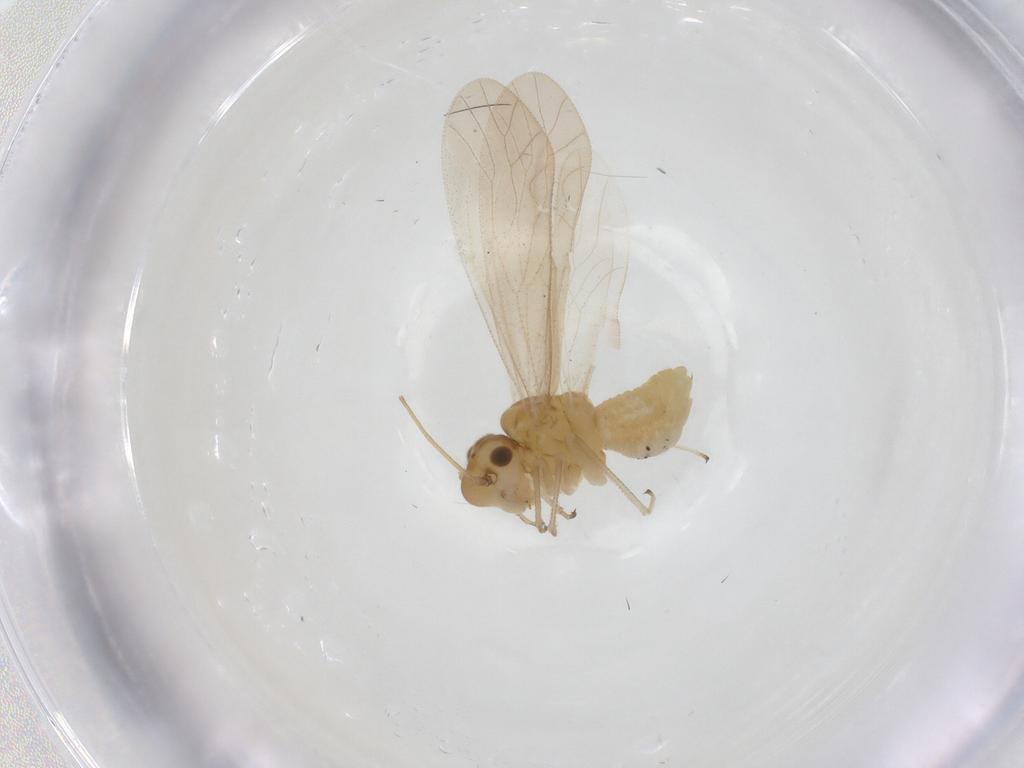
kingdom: Animalia
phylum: Arthropoda
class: Insecta
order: Psocodea
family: Caeciliusidae
